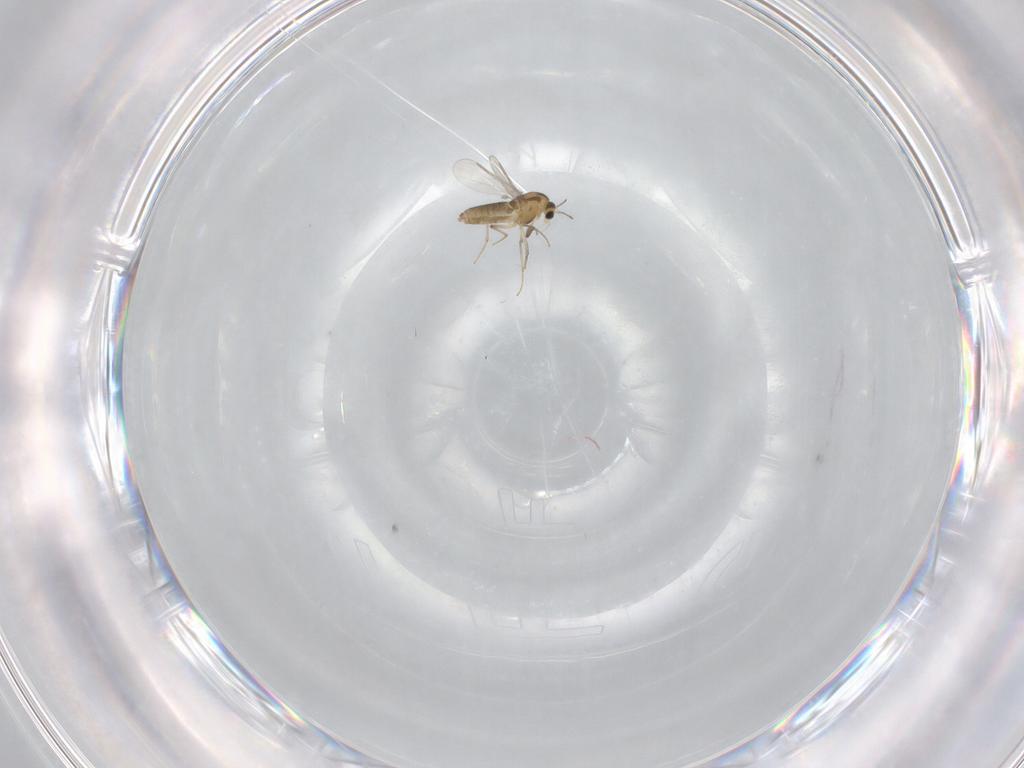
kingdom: Animalia
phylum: Arthropoda
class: Insecta
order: Diptera
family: Chironomidae
